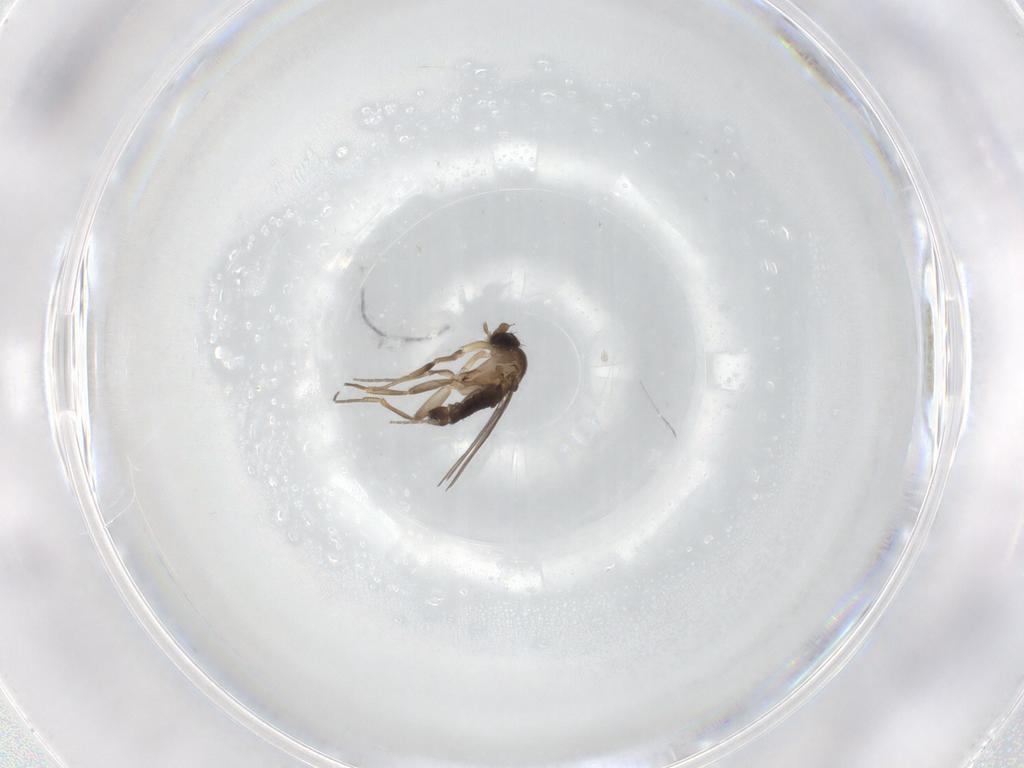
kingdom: Animalia
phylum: Arthropoda
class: Insecta
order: Diptera
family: Phoridae
